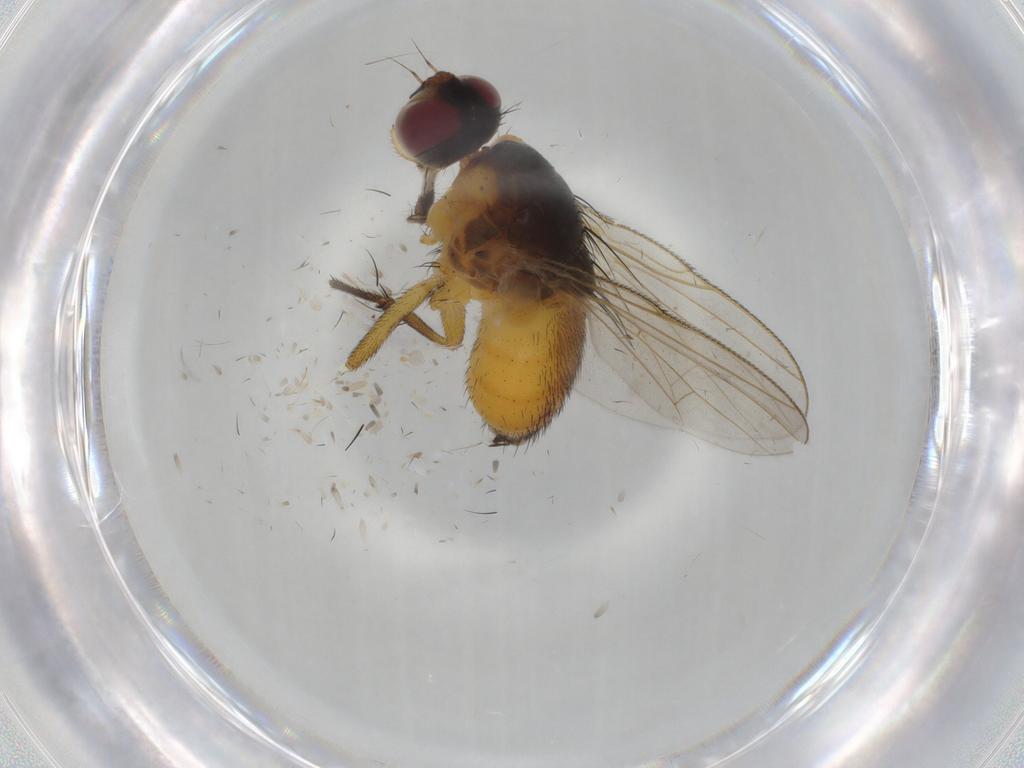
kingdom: Animalia
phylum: Arthropoda
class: Insecta
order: Diptera
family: Muscidae
